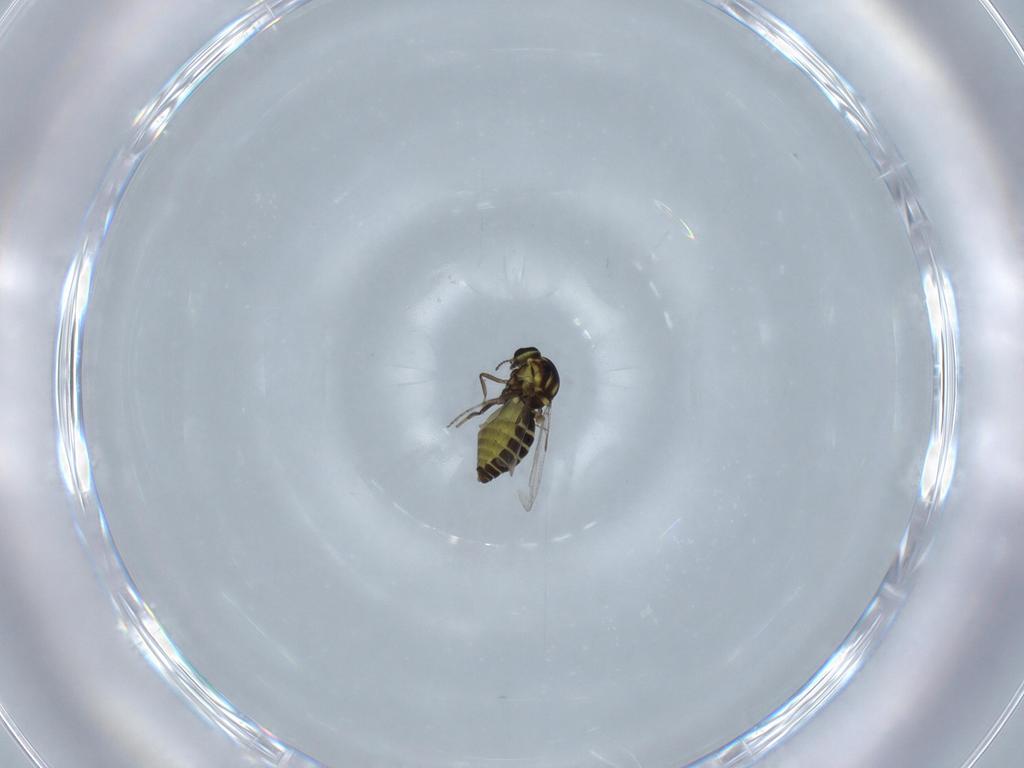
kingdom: Animalia
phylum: Arthropoda
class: Insecta
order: Diptera
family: Ceratopogonidae
